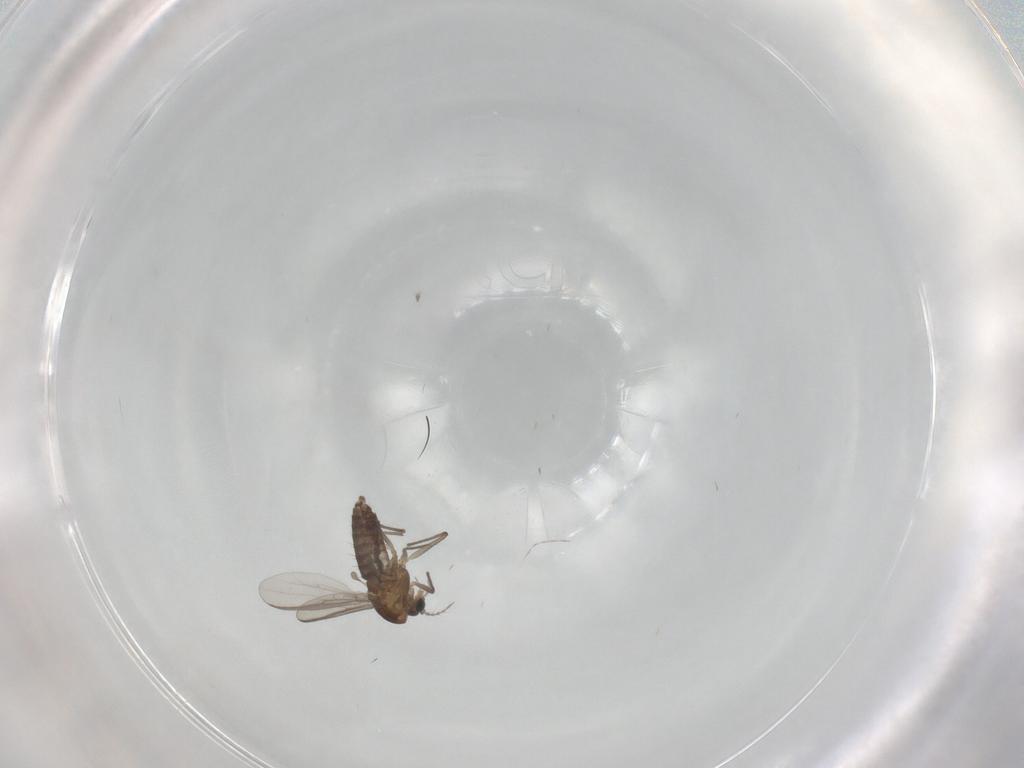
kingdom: Animalia
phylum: Arthropoda
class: Insecta
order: Diptera
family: Chironomidae
